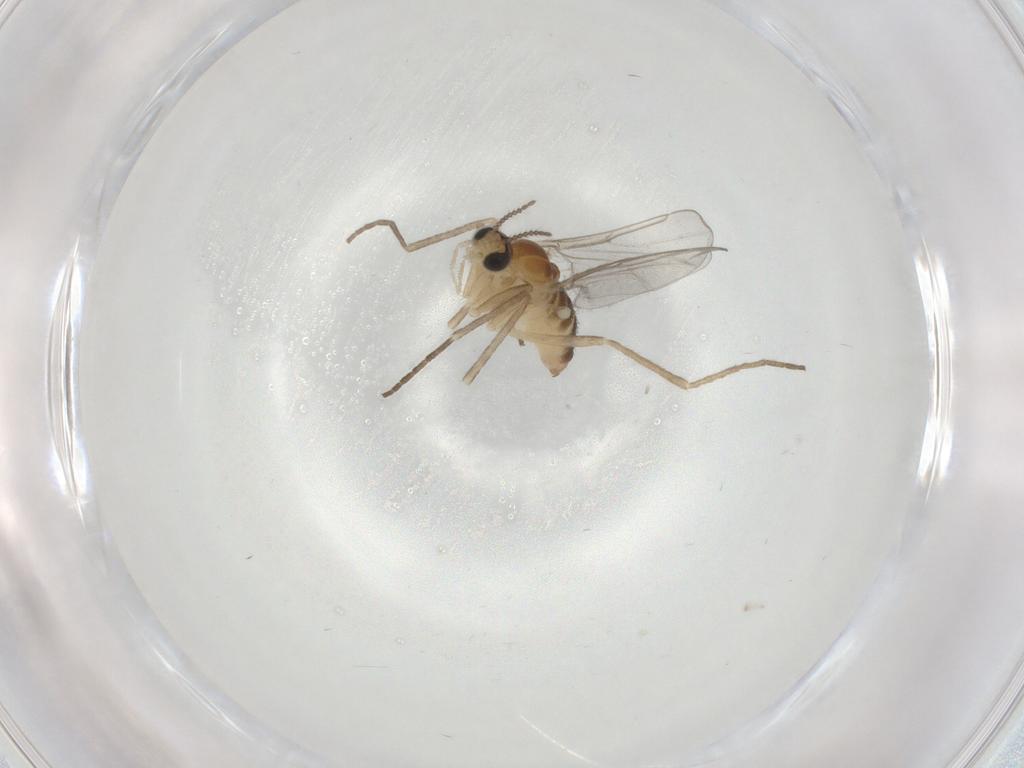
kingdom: Animalia
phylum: Arthropoda
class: Insecta
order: Diptera
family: Cecidomyiidae
